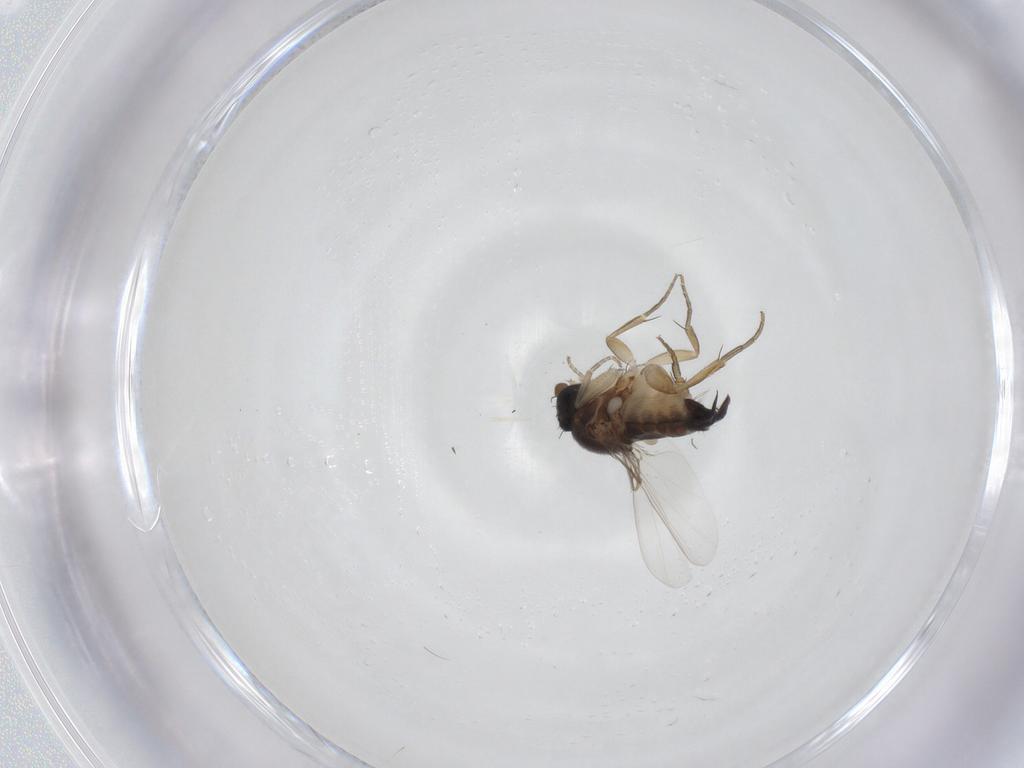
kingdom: Animalia
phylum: Arthropoda
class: Insecta
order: Diptera
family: Phoridae
